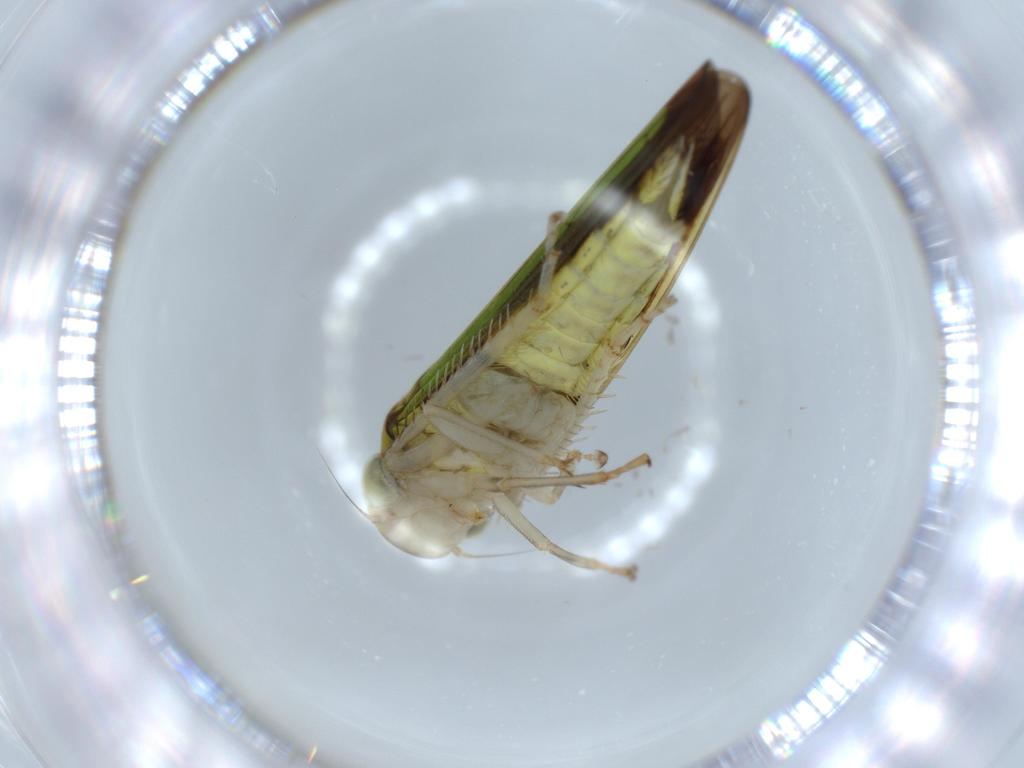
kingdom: Animalia
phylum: Arthropoda
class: Insecta
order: Hemiptera
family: Cicadellidae
